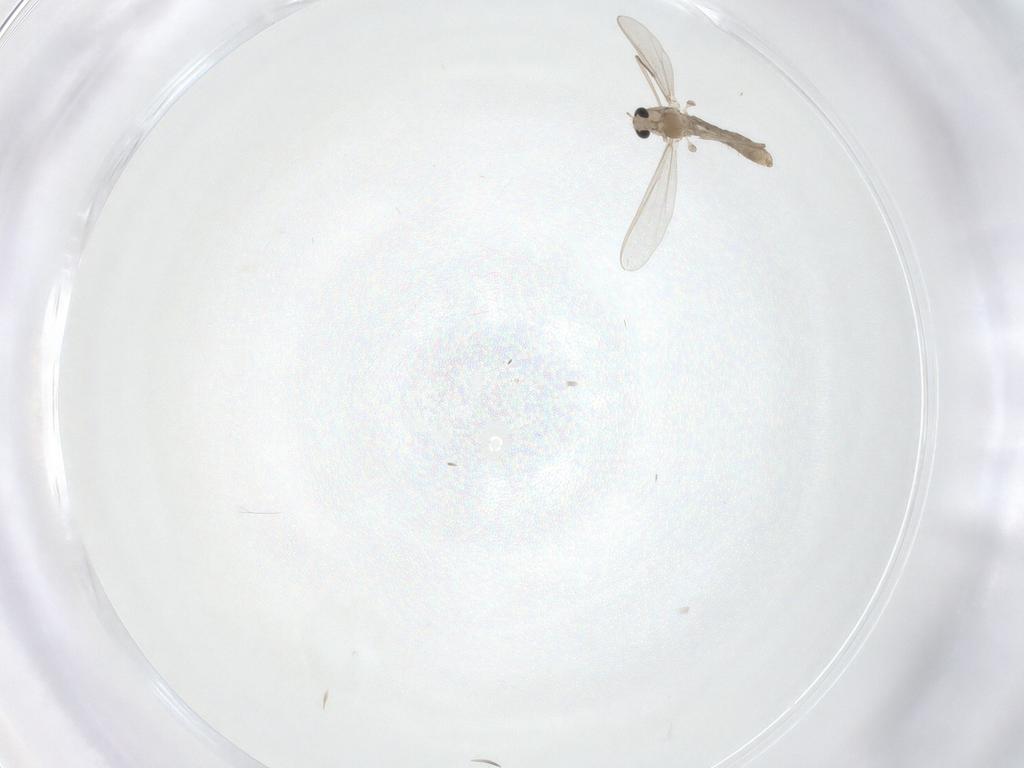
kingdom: Animalia
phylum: Arthropoda
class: Insecta
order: Diptera
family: Chironomidae
